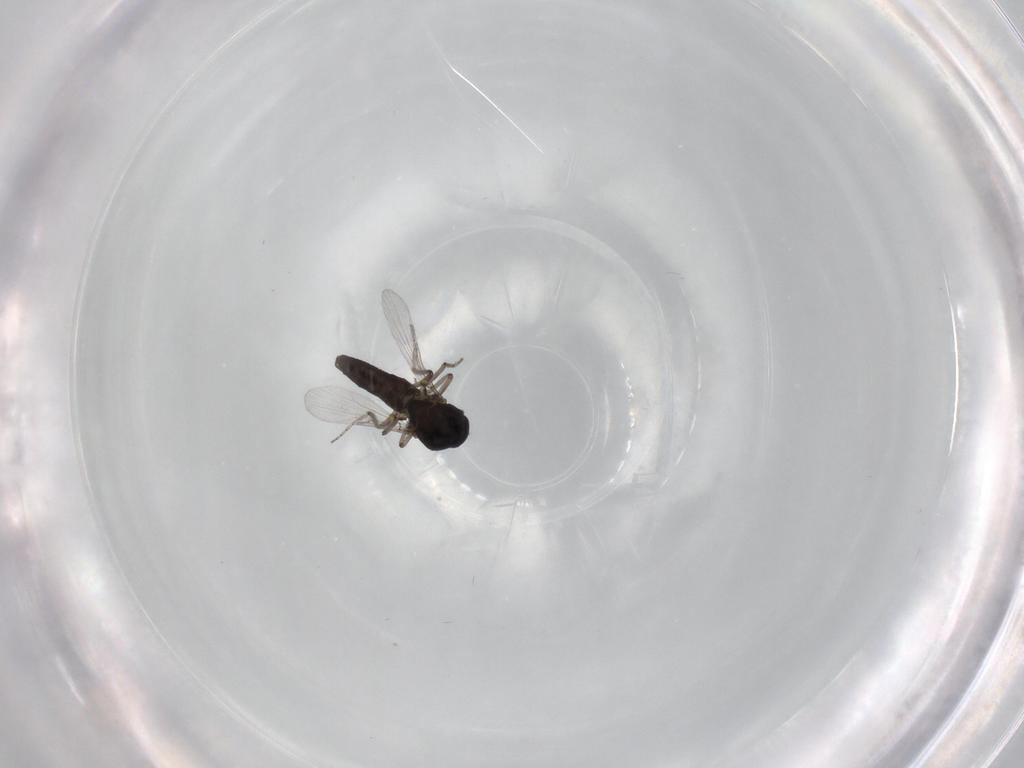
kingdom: Animalia
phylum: Arthropoda
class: Insecta
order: Diptera
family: Ceratopogonidae
